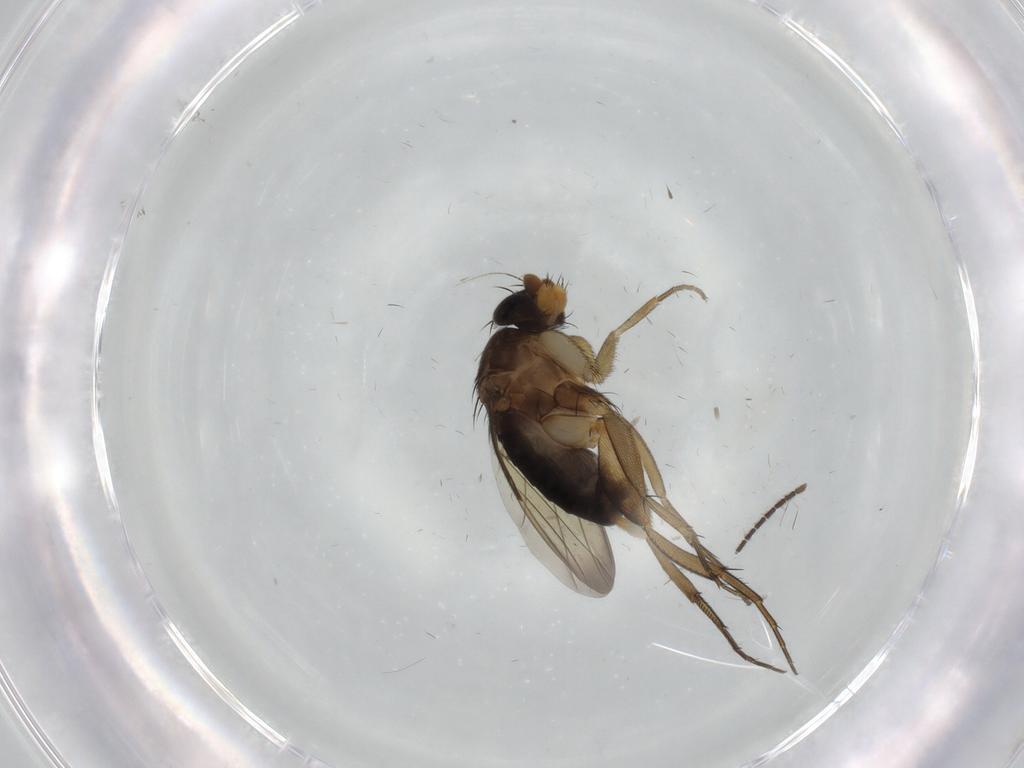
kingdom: Animalia
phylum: Arthropoda
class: Insecta
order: Diptera
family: Phoridae
